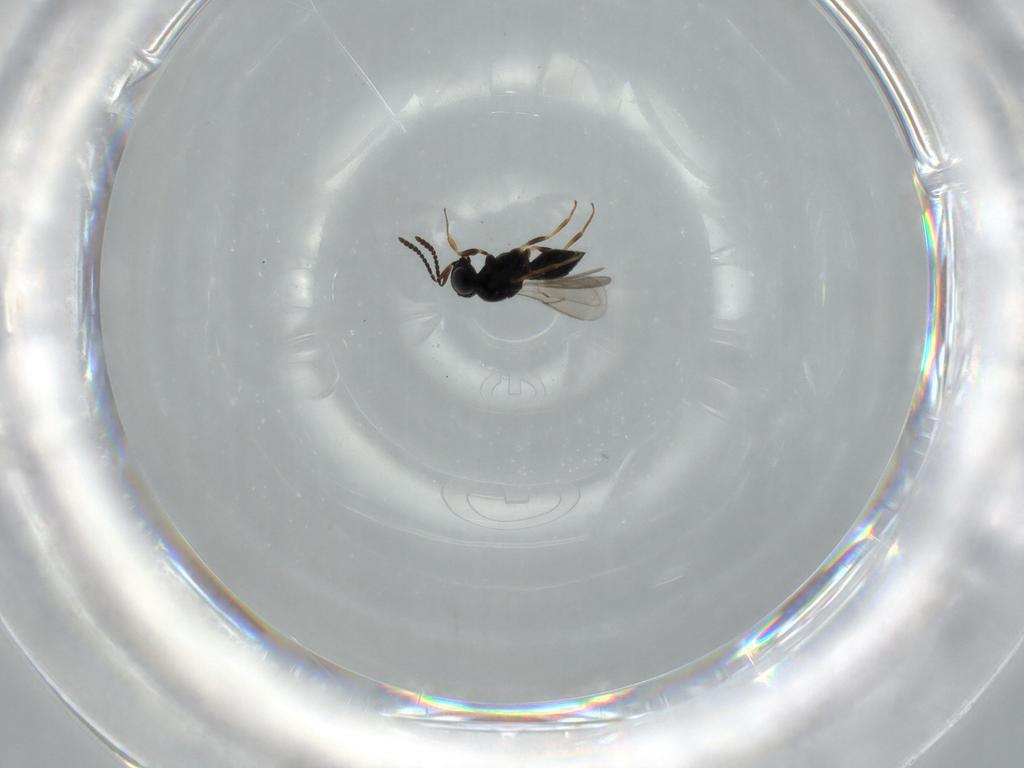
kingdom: Animalia
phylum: Arthropoda
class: Insecta
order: Hymenoptera
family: Scelionidae
